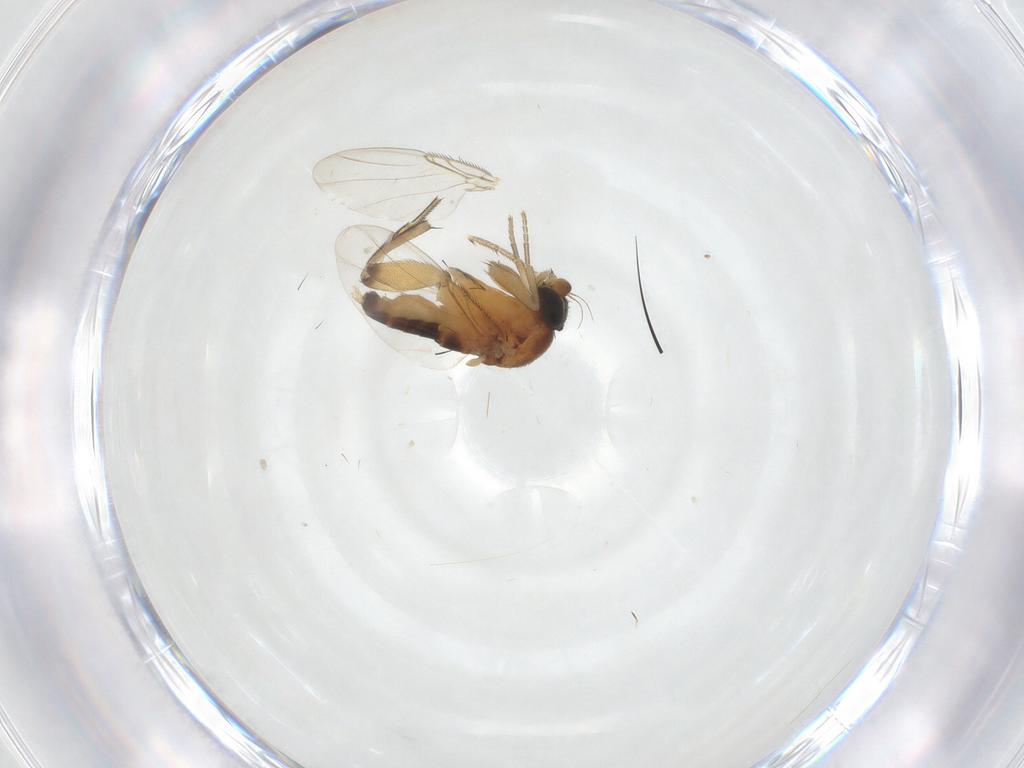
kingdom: Animalia
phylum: Arthropoda
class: Insecta
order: Diptera
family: Phoridae
